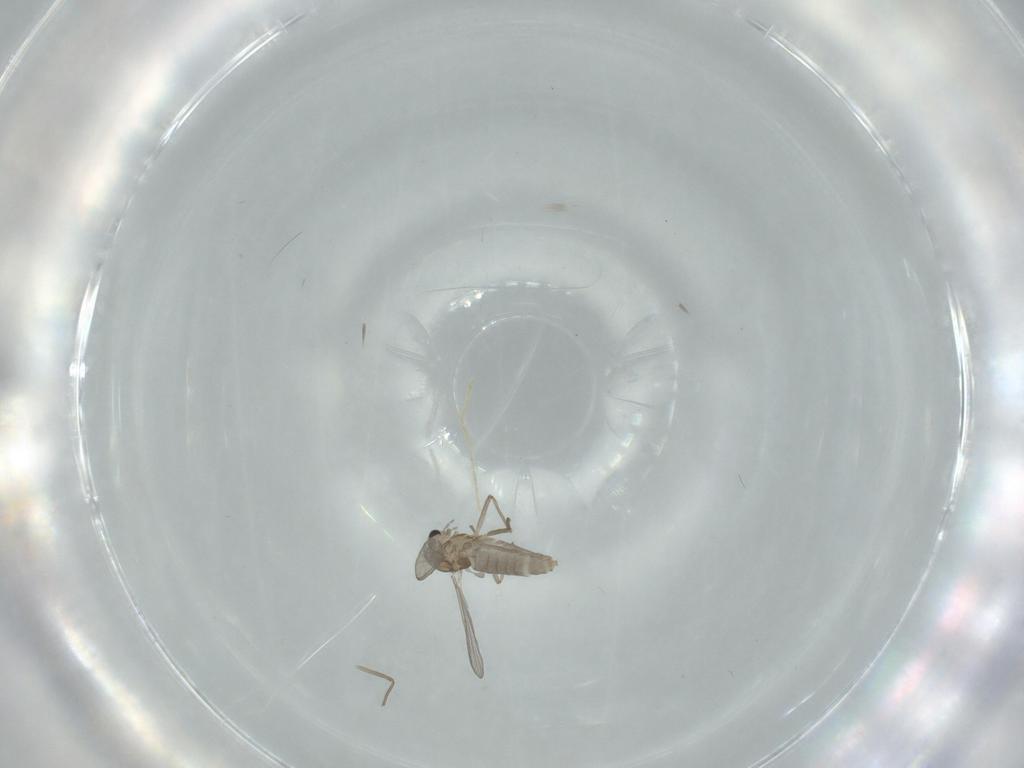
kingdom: Animalia
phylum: Arthropoda
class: Insecta
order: Diptera
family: Chironomidae
